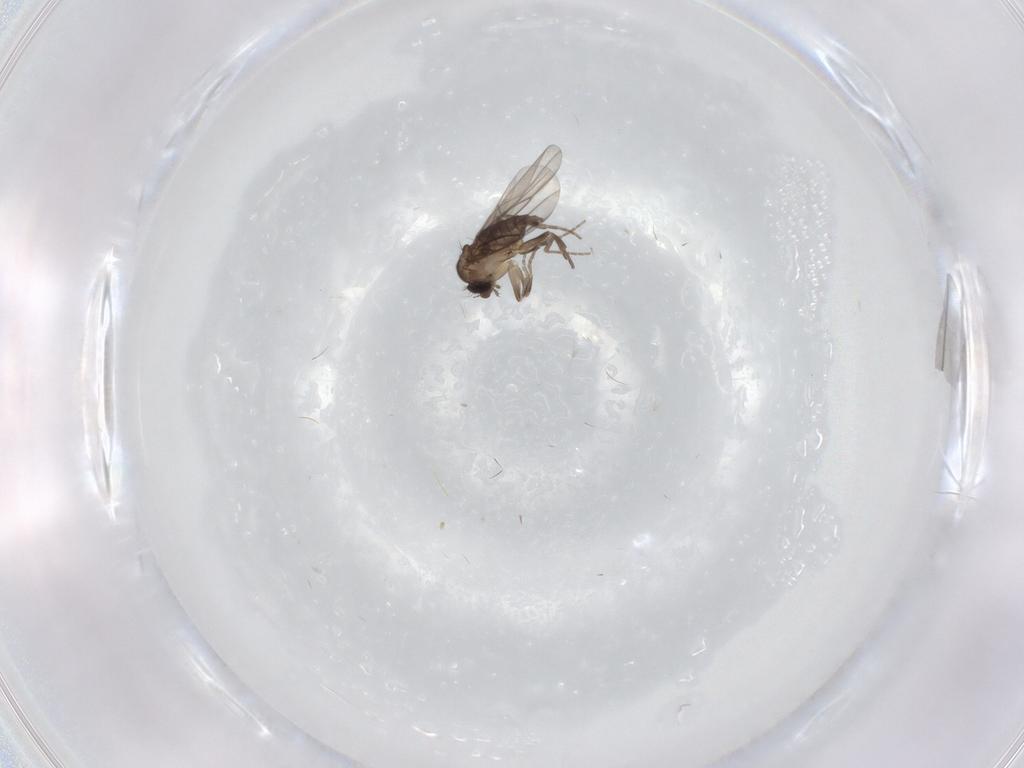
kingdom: Animalia
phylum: Arthropoda
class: Insecta
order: Diptera
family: Phoridae
